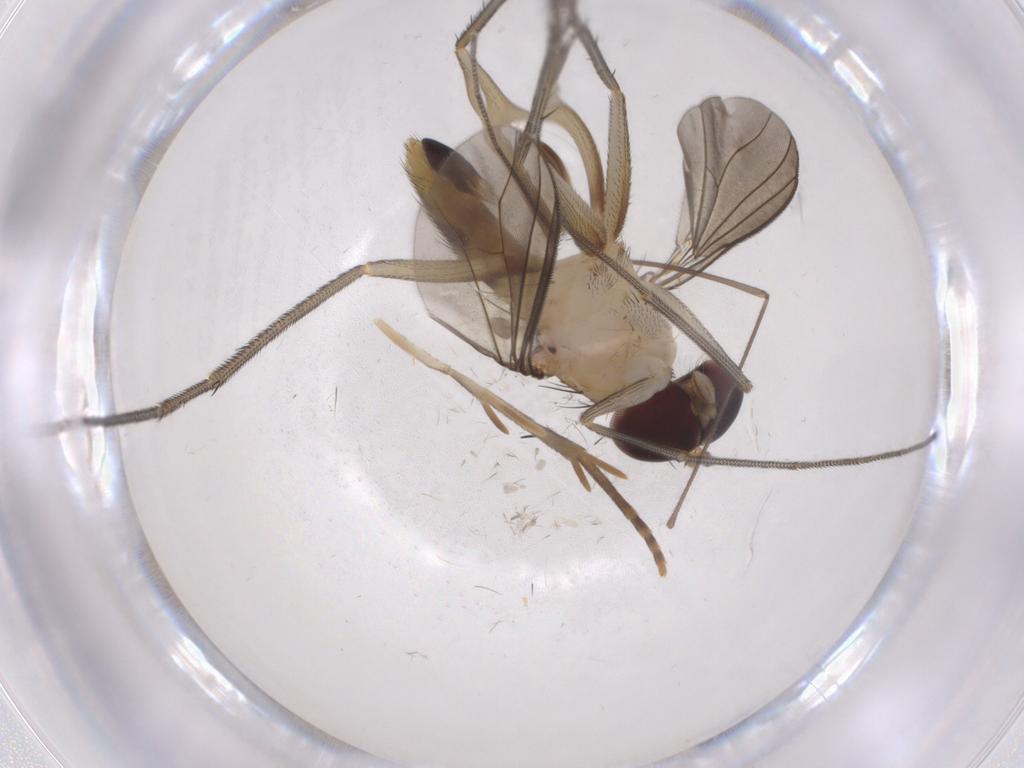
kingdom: Animalia
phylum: Arthropoda
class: Insecta
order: Diptera
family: Dolichopodidae
